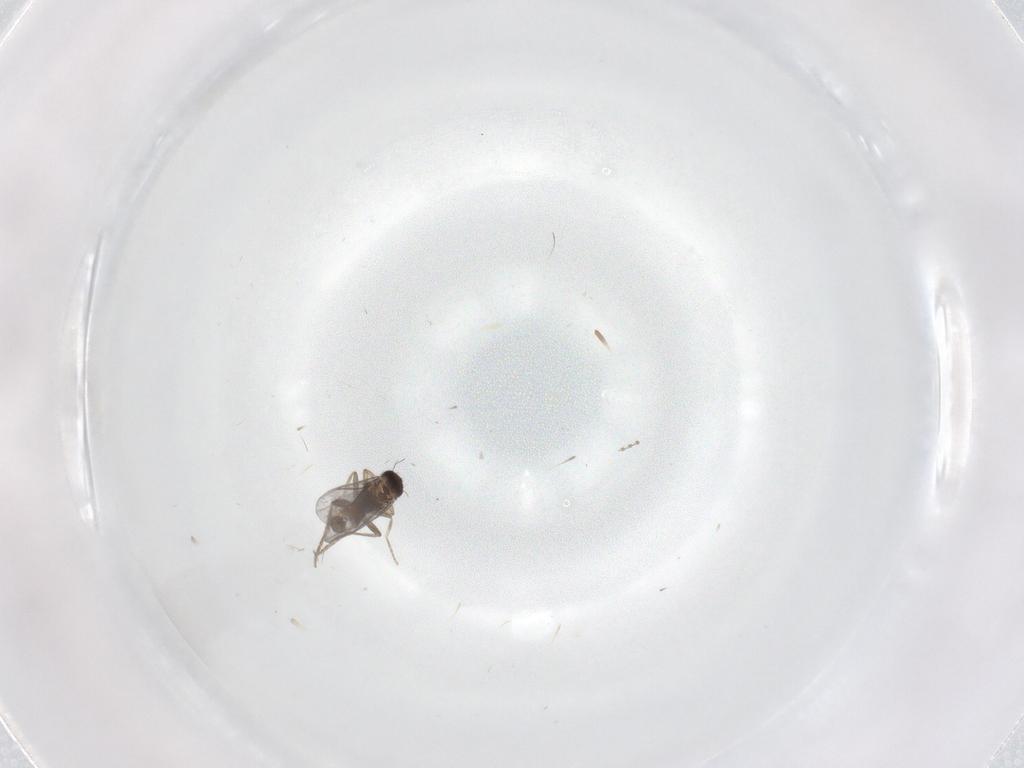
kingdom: Animalia
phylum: Arthropoda
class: Insecta
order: Diptera
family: Cecidomyiidae
